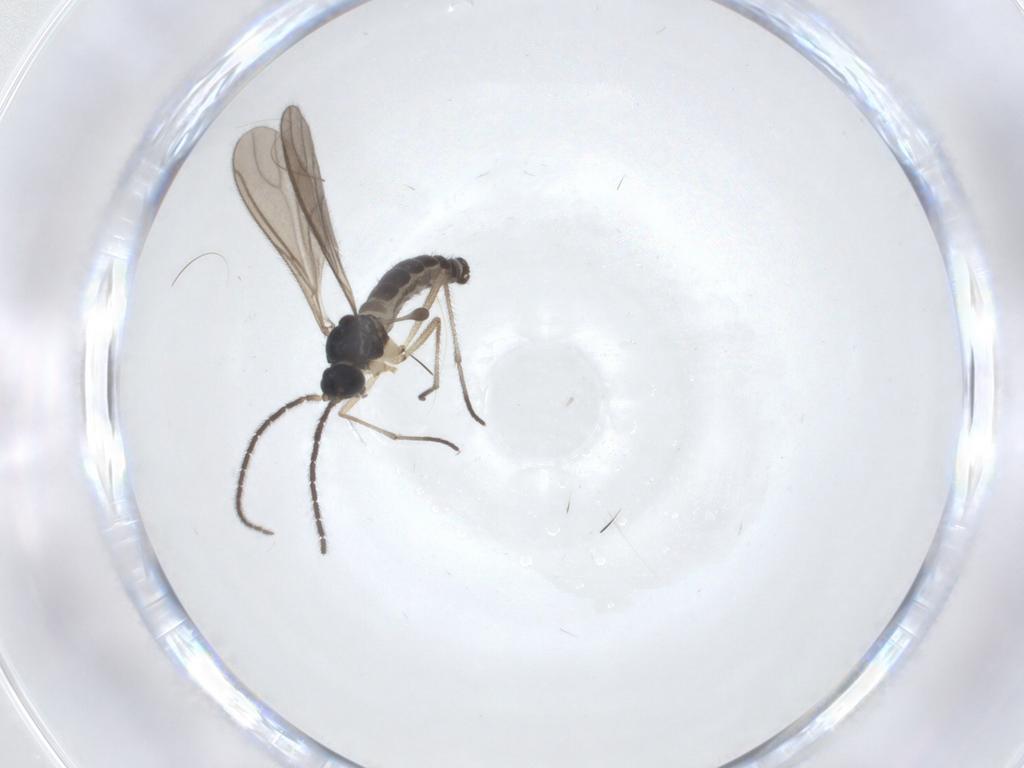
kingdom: Animalia
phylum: Arthropoda
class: Insecta
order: Diptera
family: Sciaridae
